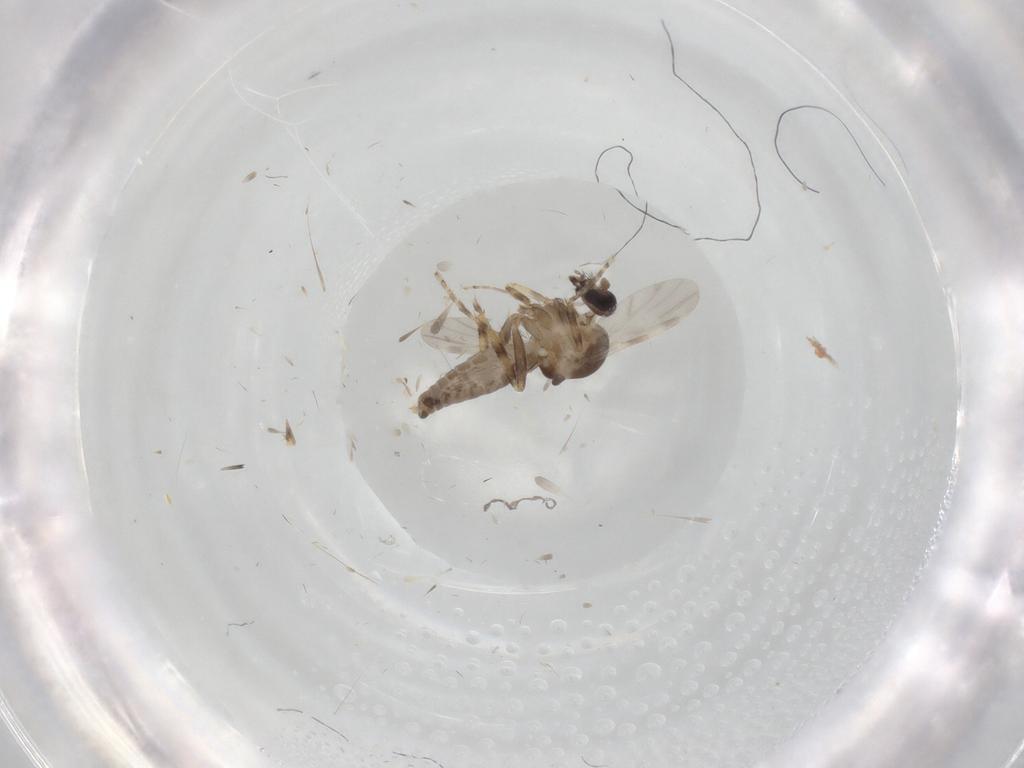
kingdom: Animalia
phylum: Arthropoda
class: Insecta
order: Diptera
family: Ceratopogonidae
